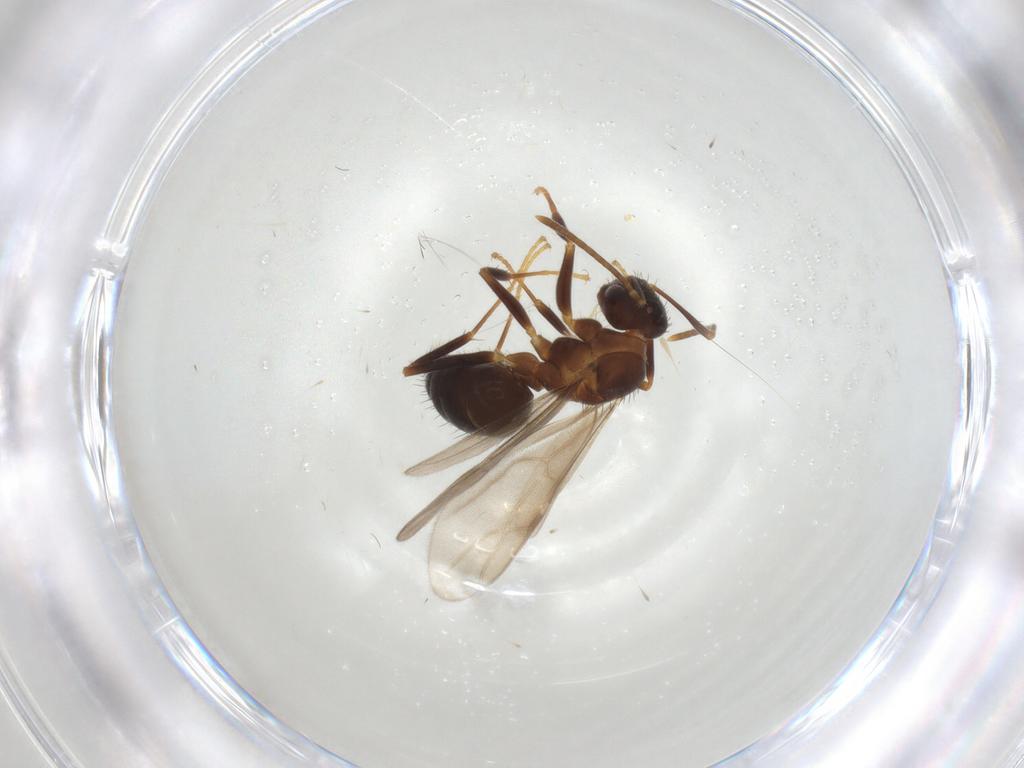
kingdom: Animalia
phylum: Arthropoda
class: Insecta
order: Hymenoptera
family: Formicidae
